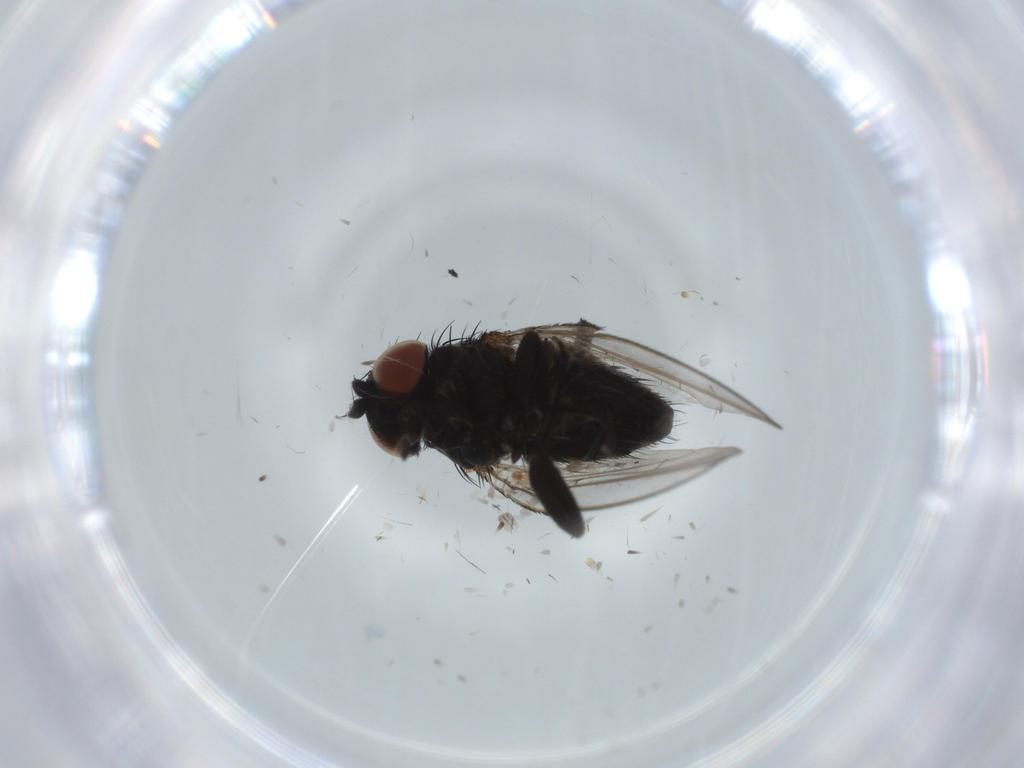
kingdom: Animalia
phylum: Arthropoda
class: Insecta
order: Diptera
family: Milichiidae
